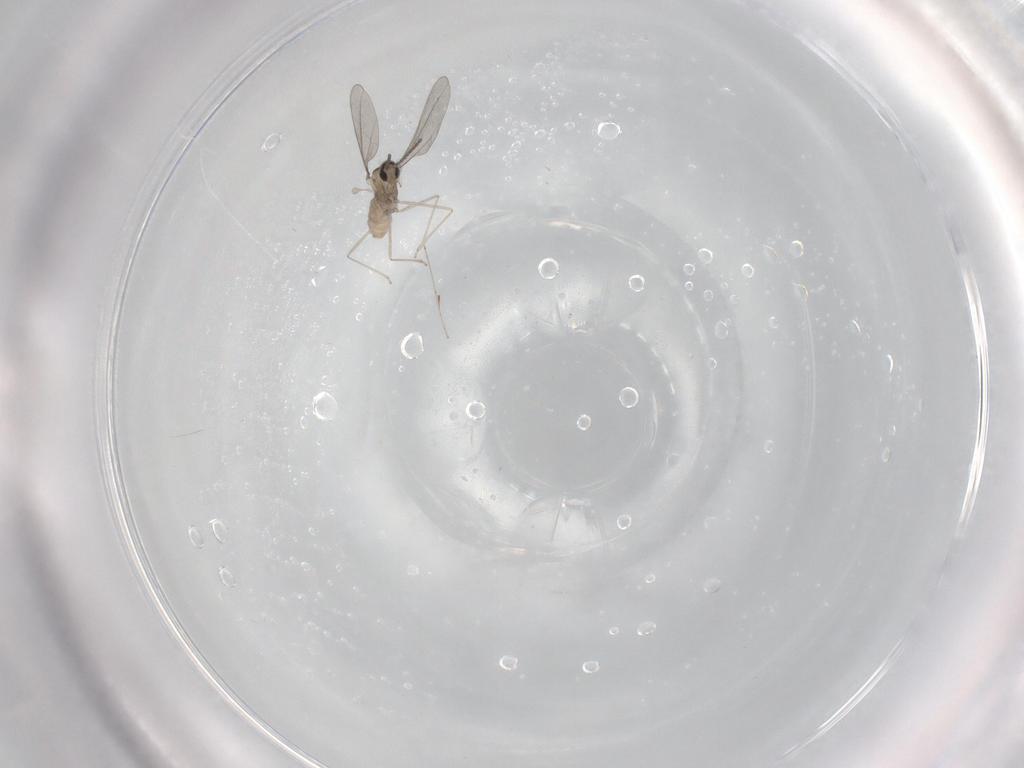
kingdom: Animalia
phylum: Arthropoda
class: Insecta
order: Diptera
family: Cecidomyiidae
